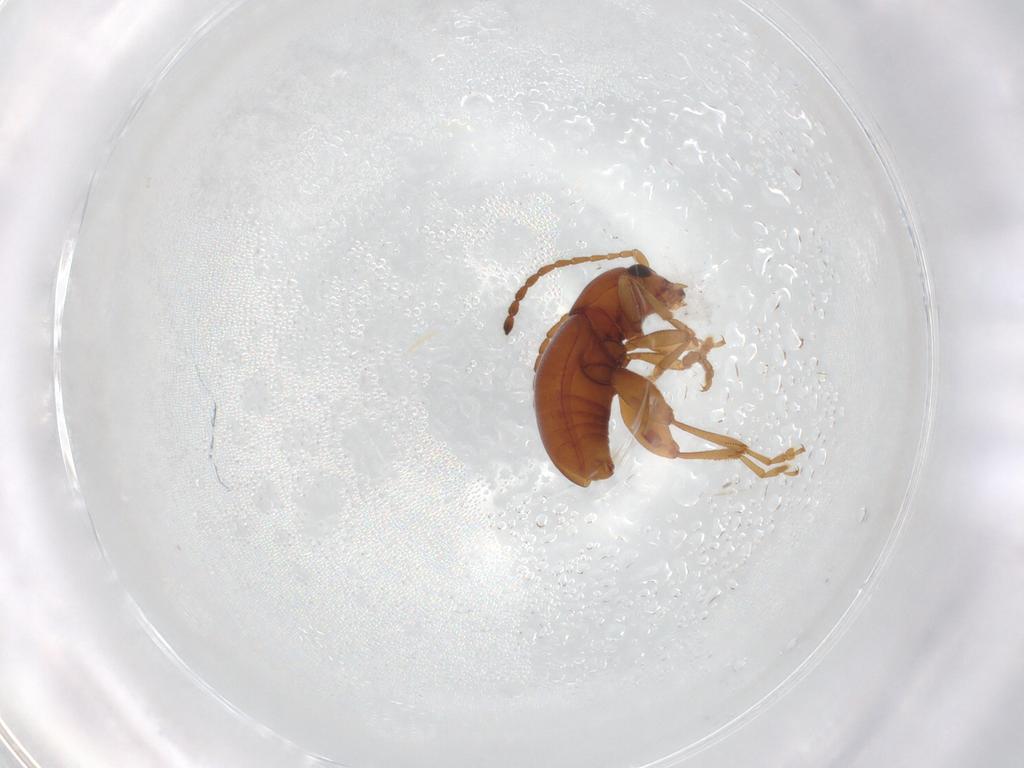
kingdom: Animalia
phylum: Arthropoda
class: Insecta
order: Coleoptera
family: Chrysomelidae
